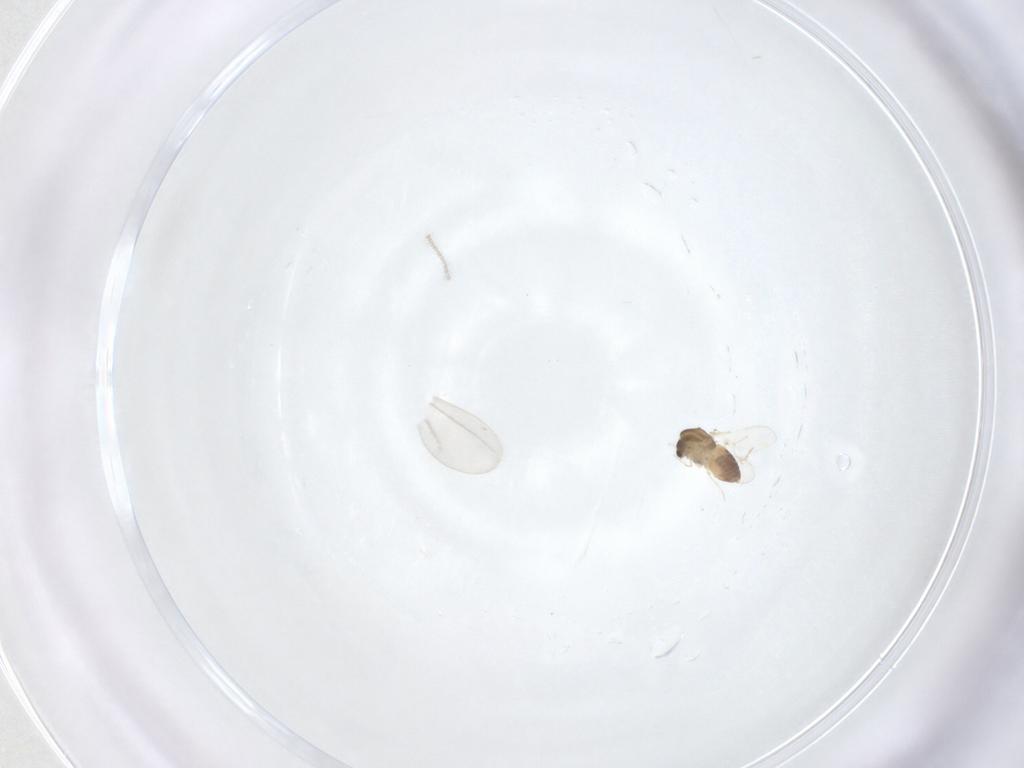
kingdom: Animalia
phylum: Arthropoda
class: Insecta
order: Diptera
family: Chironomidae
